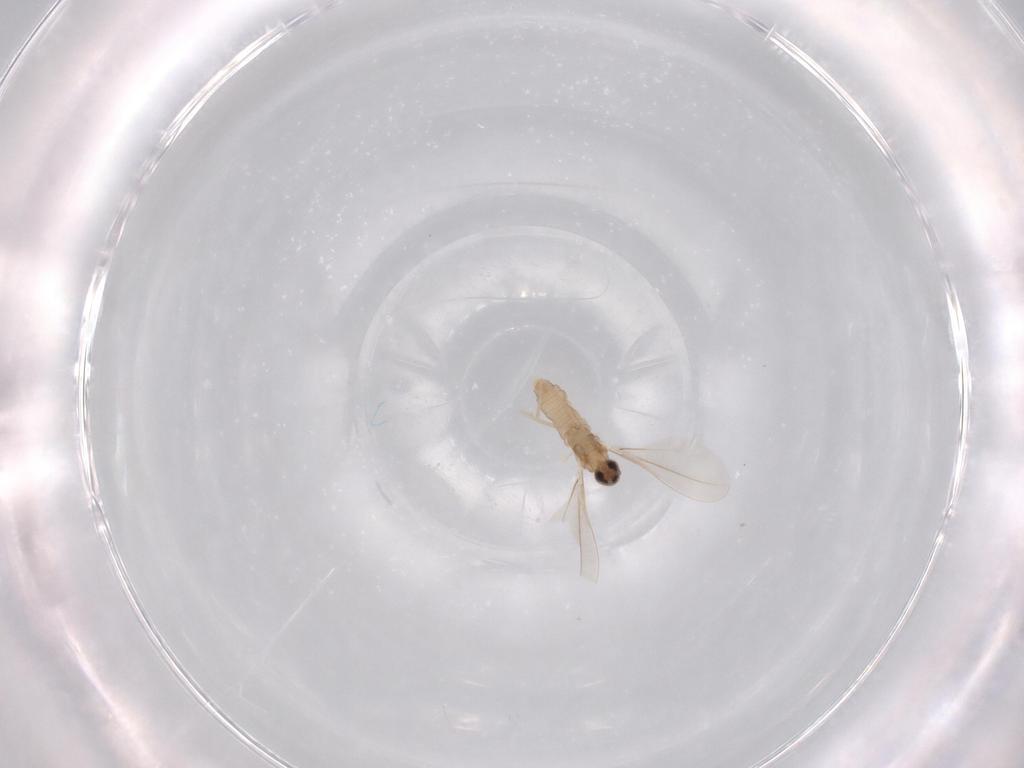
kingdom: Animalia
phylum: Arthropoda
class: Insecta
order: Diptera
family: Cecidomyiidae
